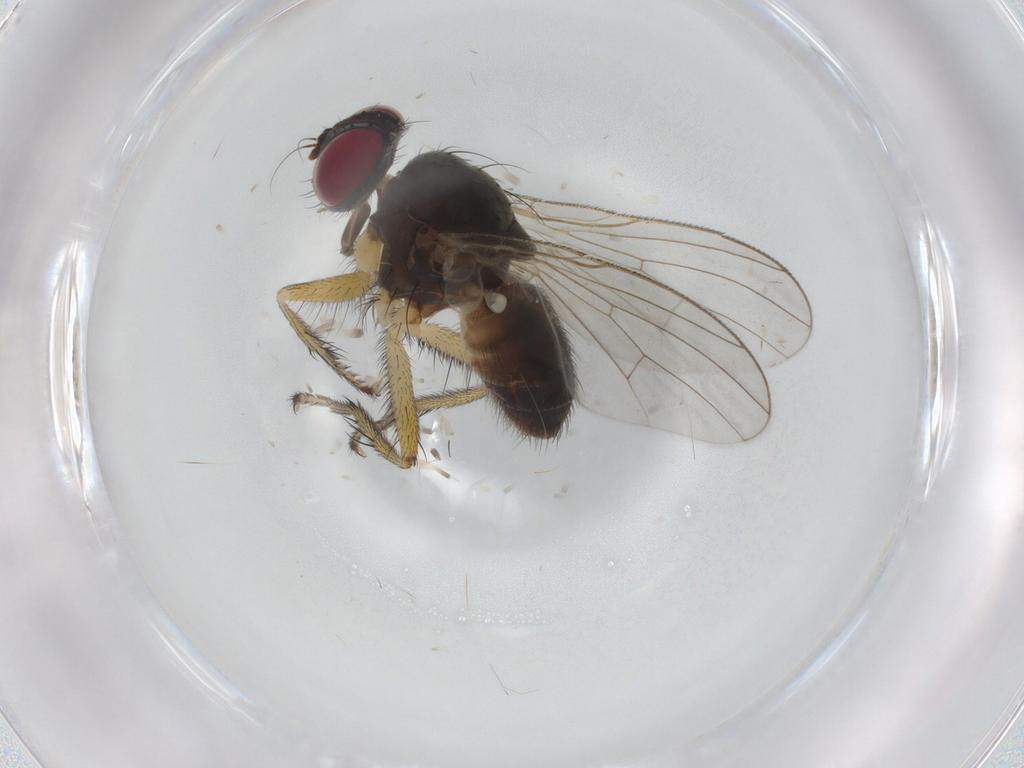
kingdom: Animalia
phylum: Arthropoda
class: Insecta
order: Diptera
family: Muscidae
